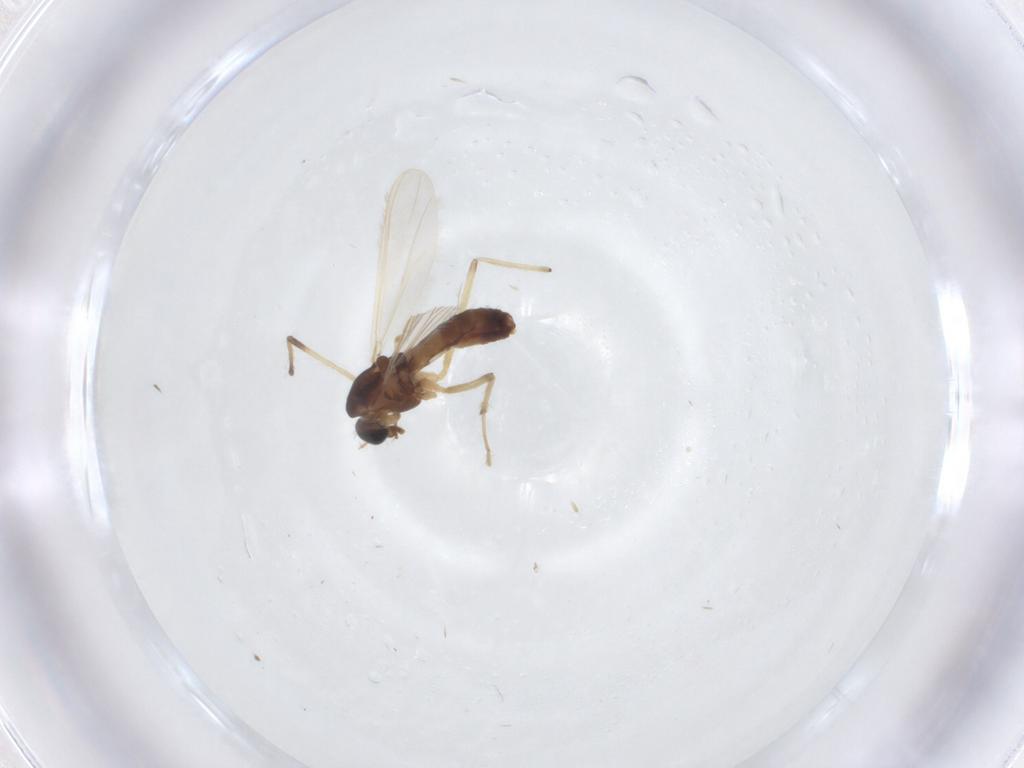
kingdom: Animalia
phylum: Arthropoda
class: Insecta
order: Diptera
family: Chironomidae
